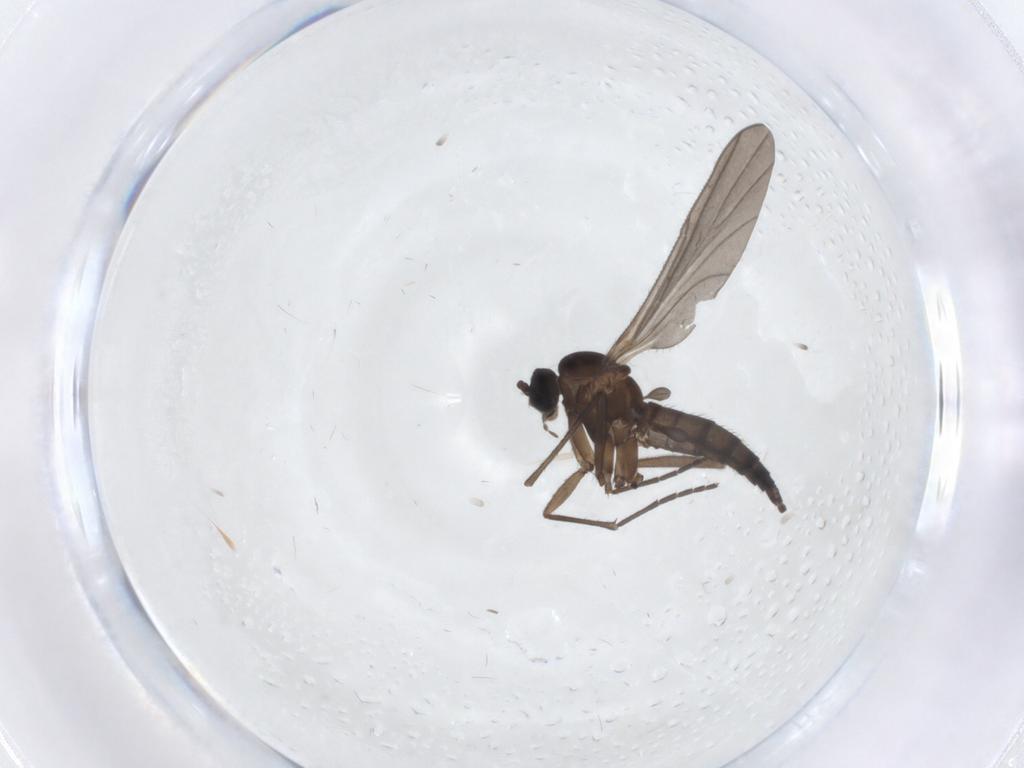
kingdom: Animalia
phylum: Arthropoda
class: Insecta
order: Diptera
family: Sciaridae
